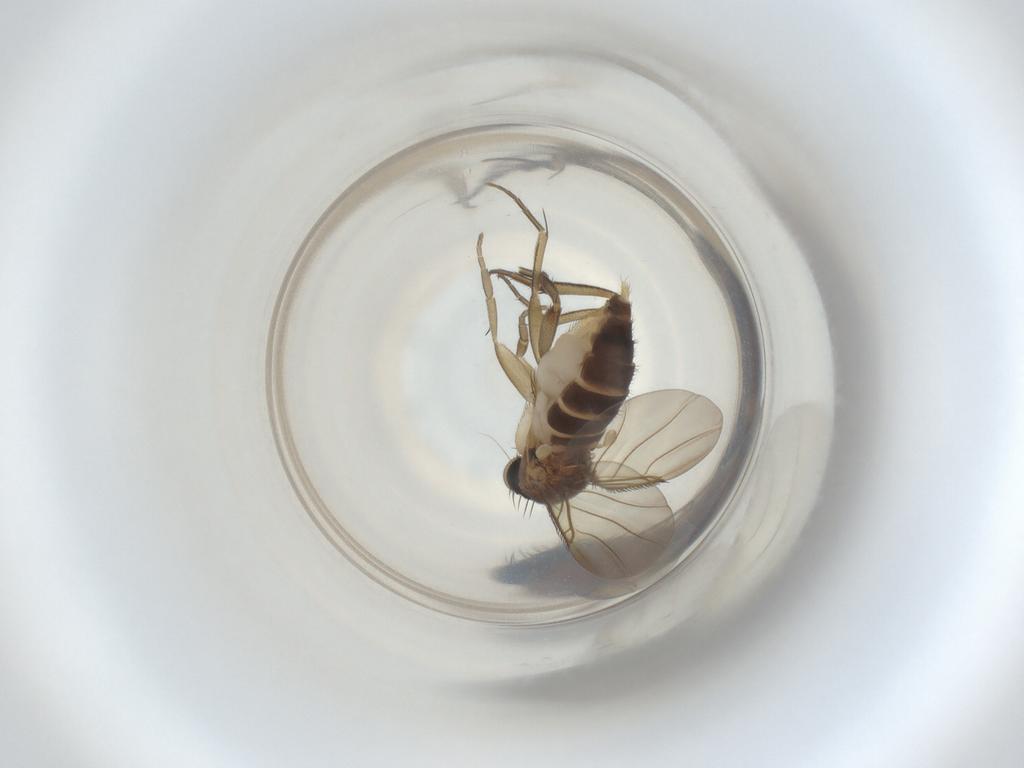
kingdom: Animalia
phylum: Arthropoda
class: Insecta
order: Diptera
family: Phoridae
